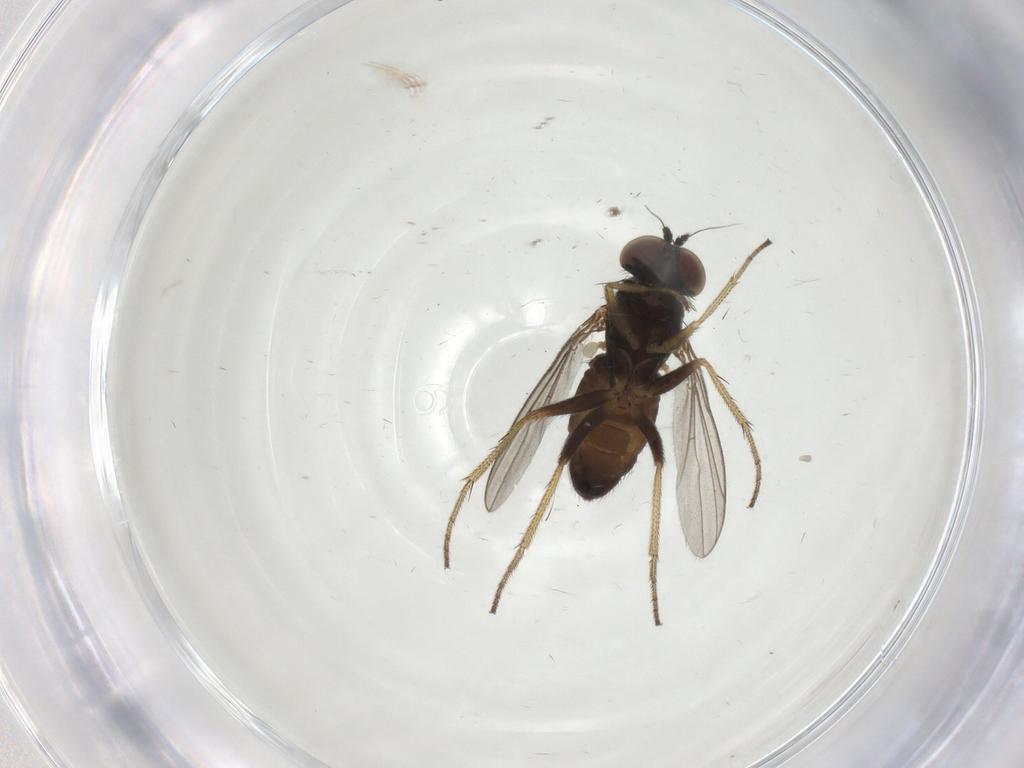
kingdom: Animalia
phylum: Arthropoda
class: Insecta
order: Diptera
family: Dolichopodidae
